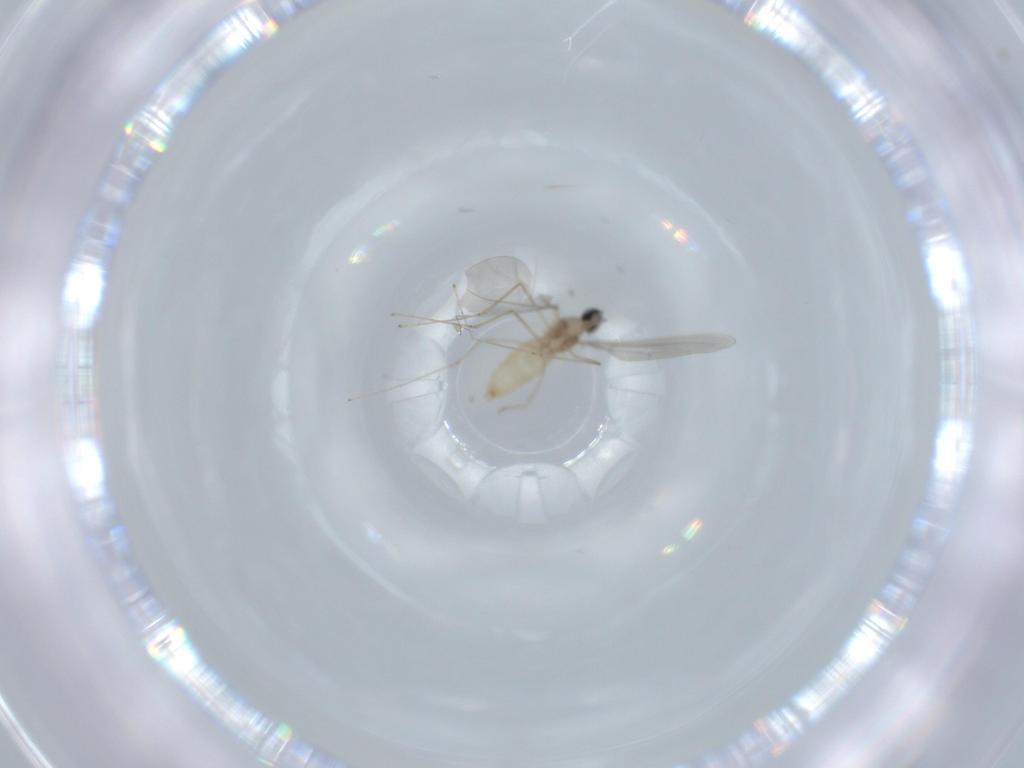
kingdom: Animalia
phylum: Arthropoda
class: Insecta
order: Diptera
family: Cecidomyiidae
